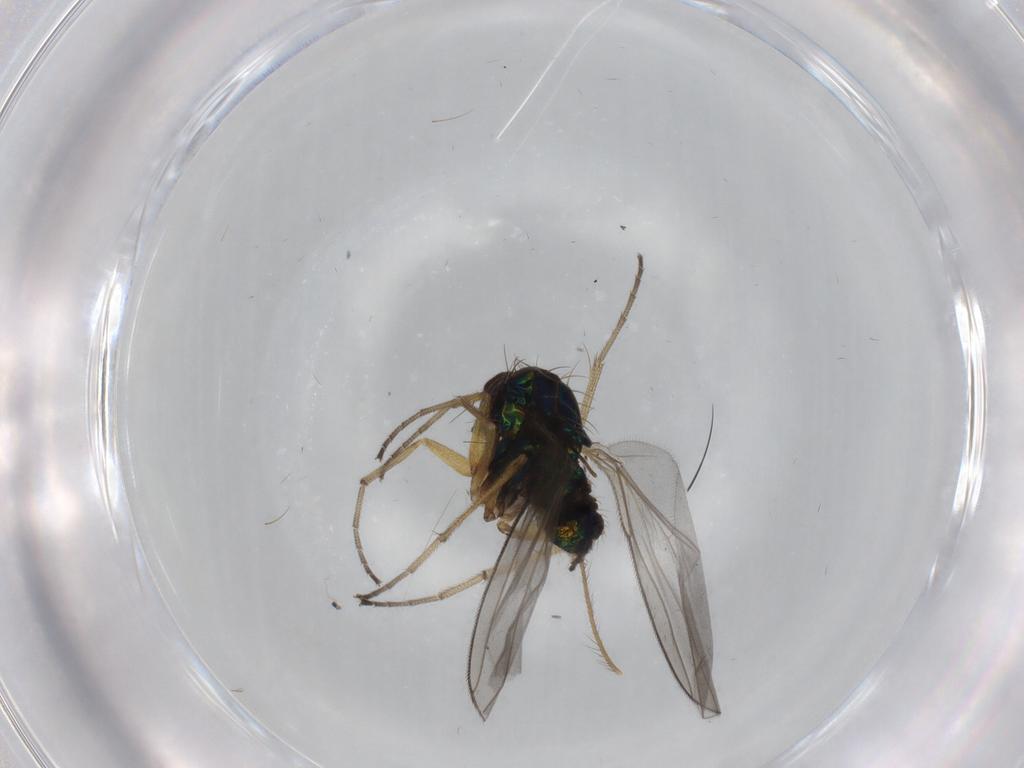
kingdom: Animalia
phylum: Arthropoda
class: Insecta
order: Diptera
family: Dolichopodidae
